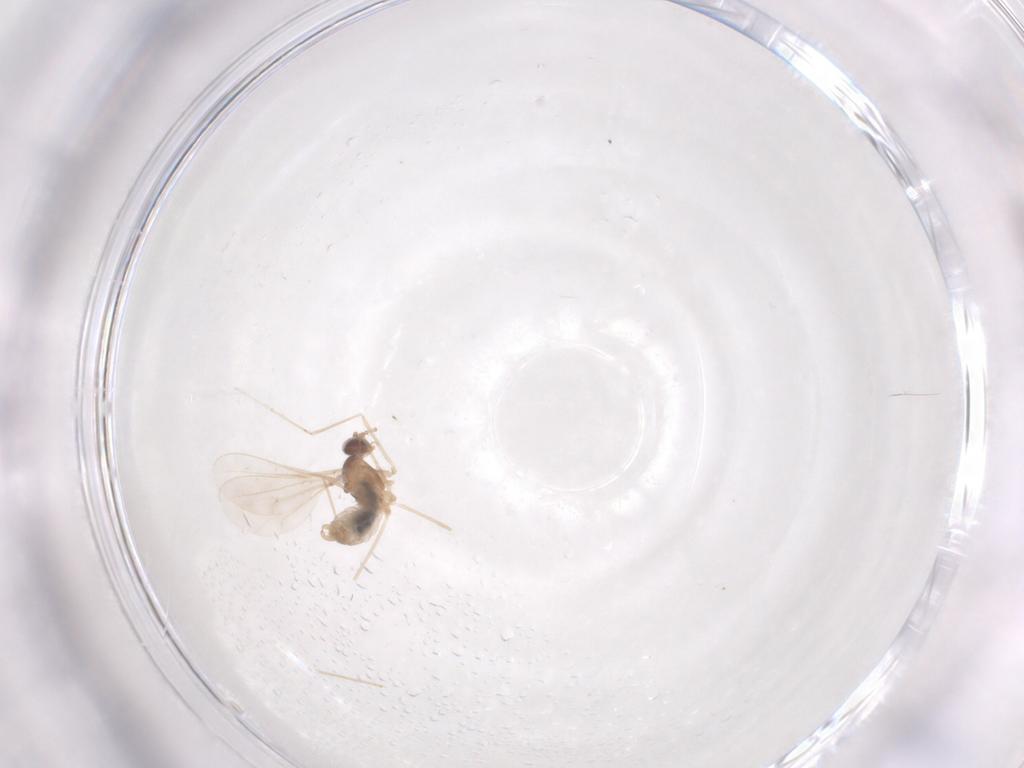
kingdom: Animalia
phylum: Arthropoda
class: Insecta
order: Diptera
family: Cecidomyiidae
